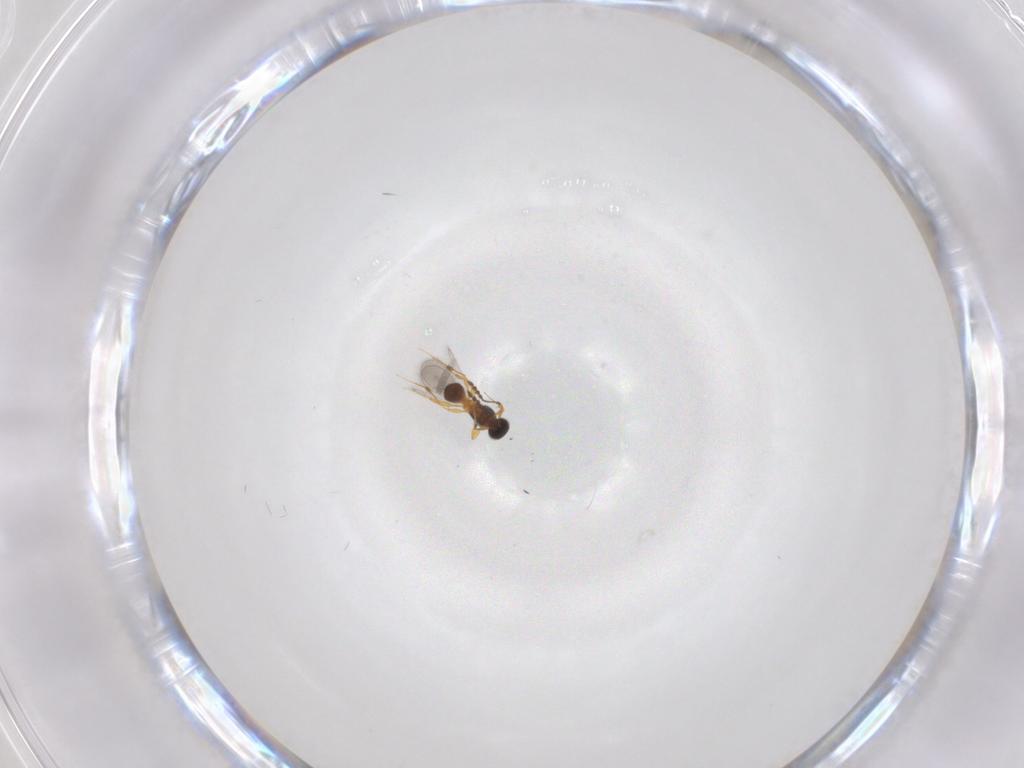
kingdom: Animalia
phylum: Arthropoda
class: Insecta
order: Hymenoptera
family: Platygastridae
